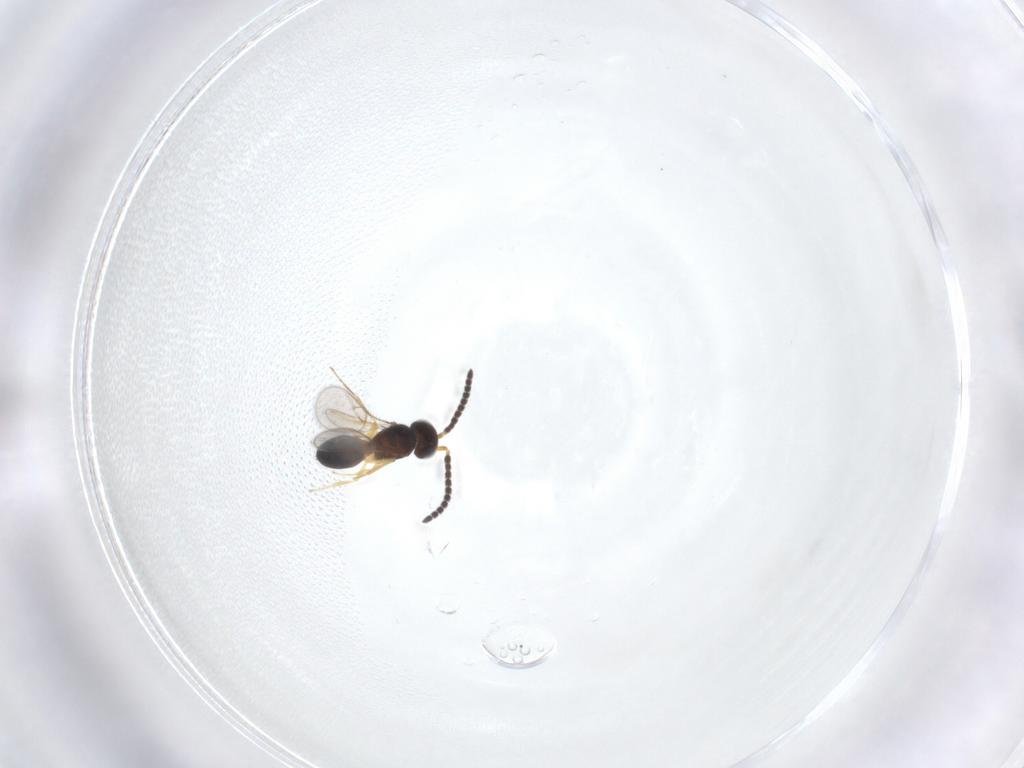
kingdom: Animalia
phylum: Arthropoda
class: Insecta
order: Hymenoptera
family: Scelionidae
